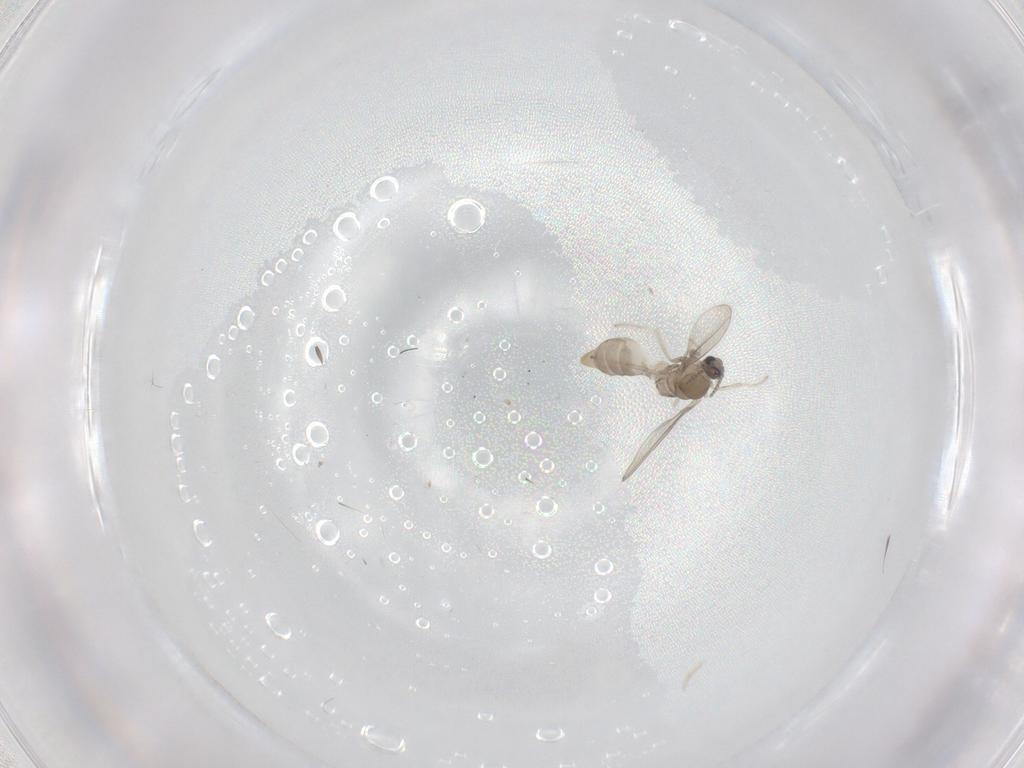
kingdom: Animalia
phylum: Arthropoda
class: Insecta
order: Diptera
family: Cecidomyiidae
